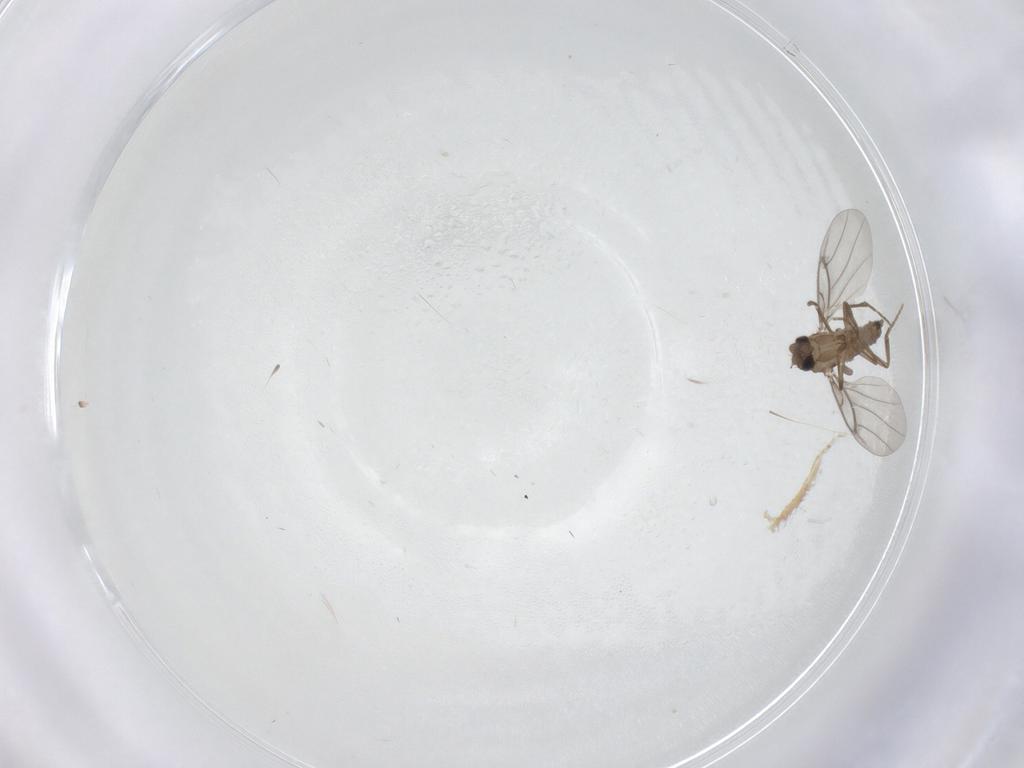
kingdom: Animalia
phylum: Arthropoda
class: Insecta
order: Diptera
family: Chironomidae
